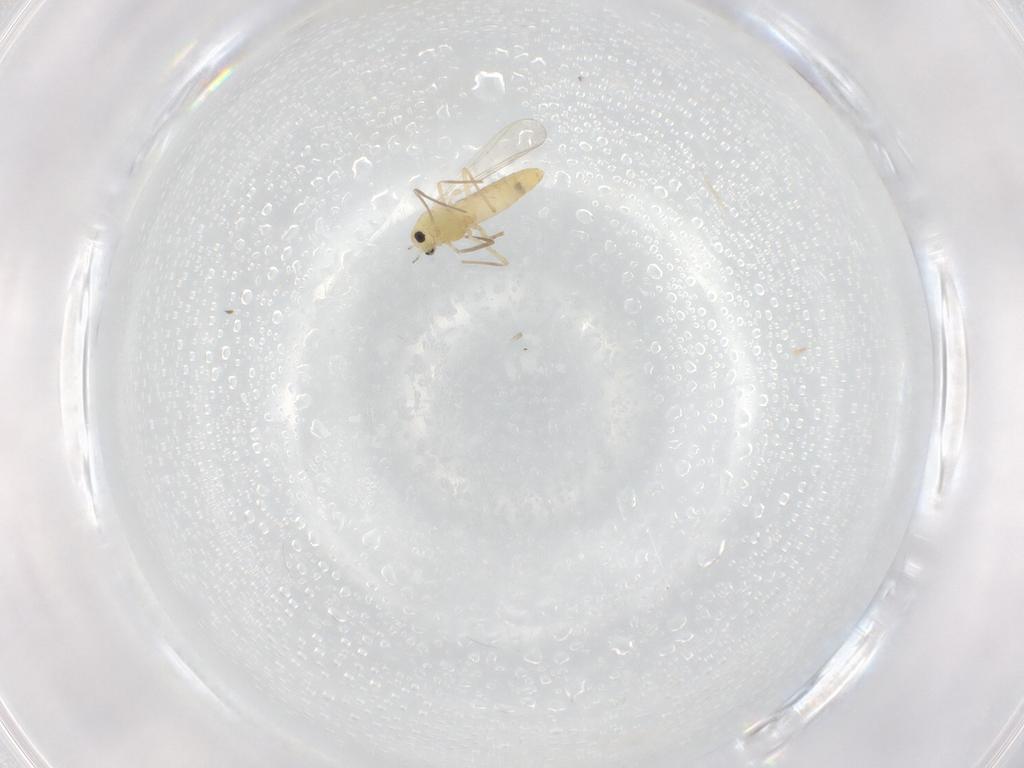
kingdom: Animalia
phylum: Arthropoda
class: Insecta
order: Diptera
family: Chironomidae
